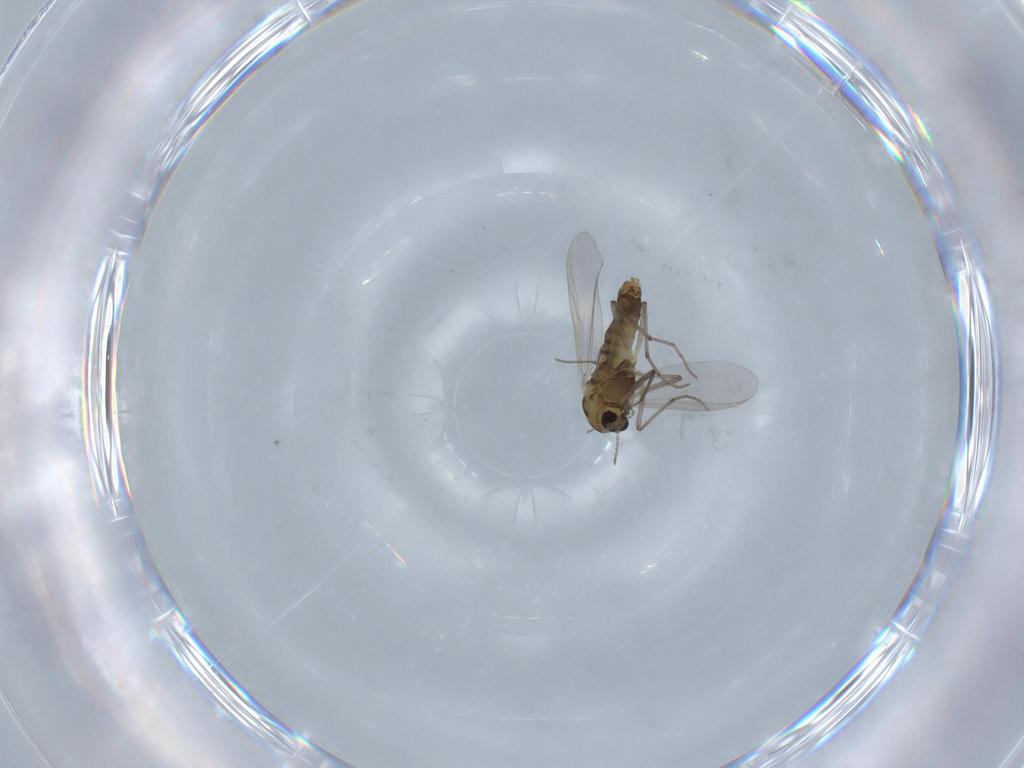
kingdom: Animalia
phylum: Arthropoda
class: Insecta
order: Diptera
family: Chironomidae
